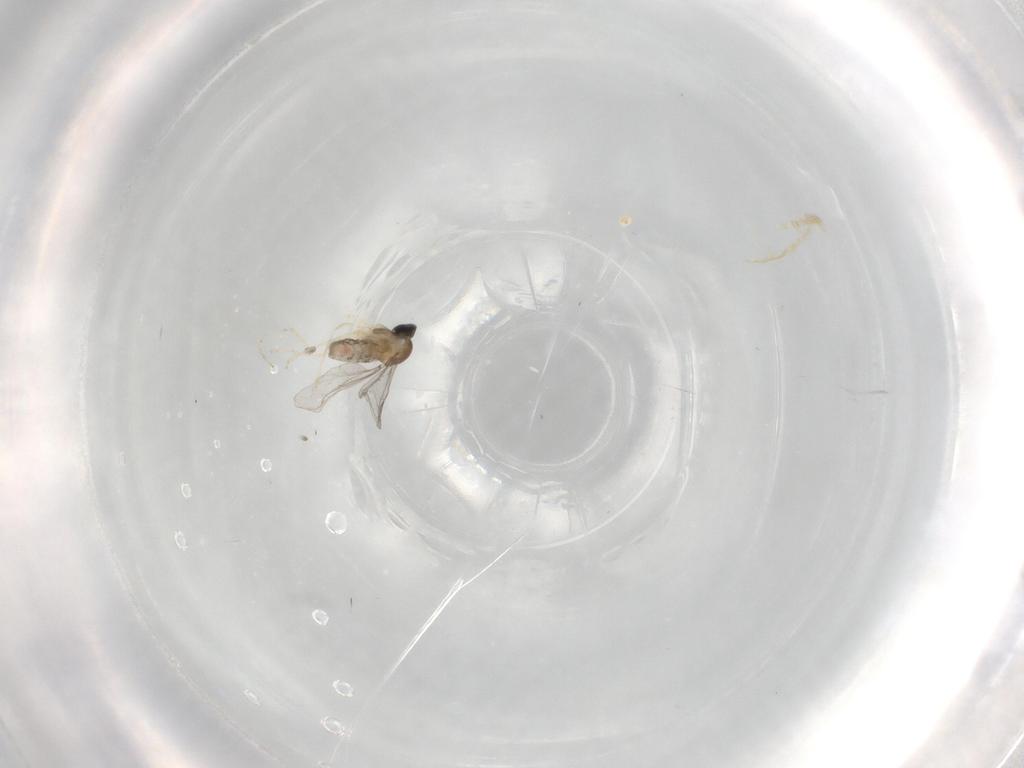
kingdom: Animalia
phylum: Arthropoda
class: Insecta
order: Diptera
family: Cecidomyiidae
